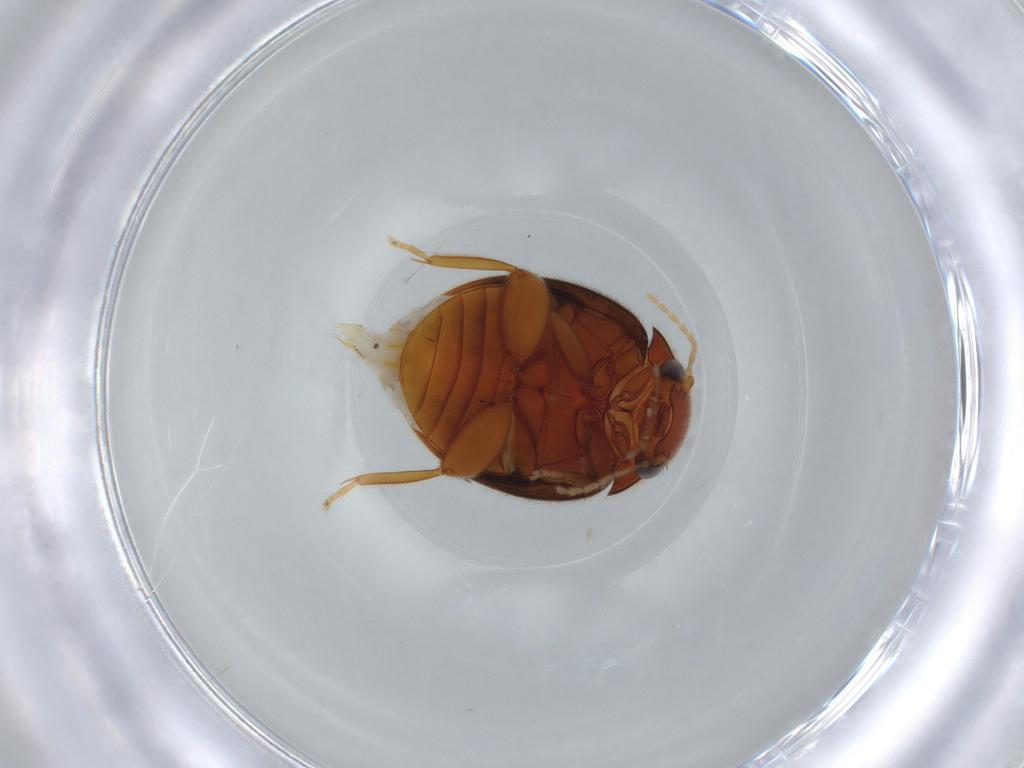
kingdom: Animalia
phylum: Arthropoda
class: Insecta
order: Coleoptera
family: Scirtidae
